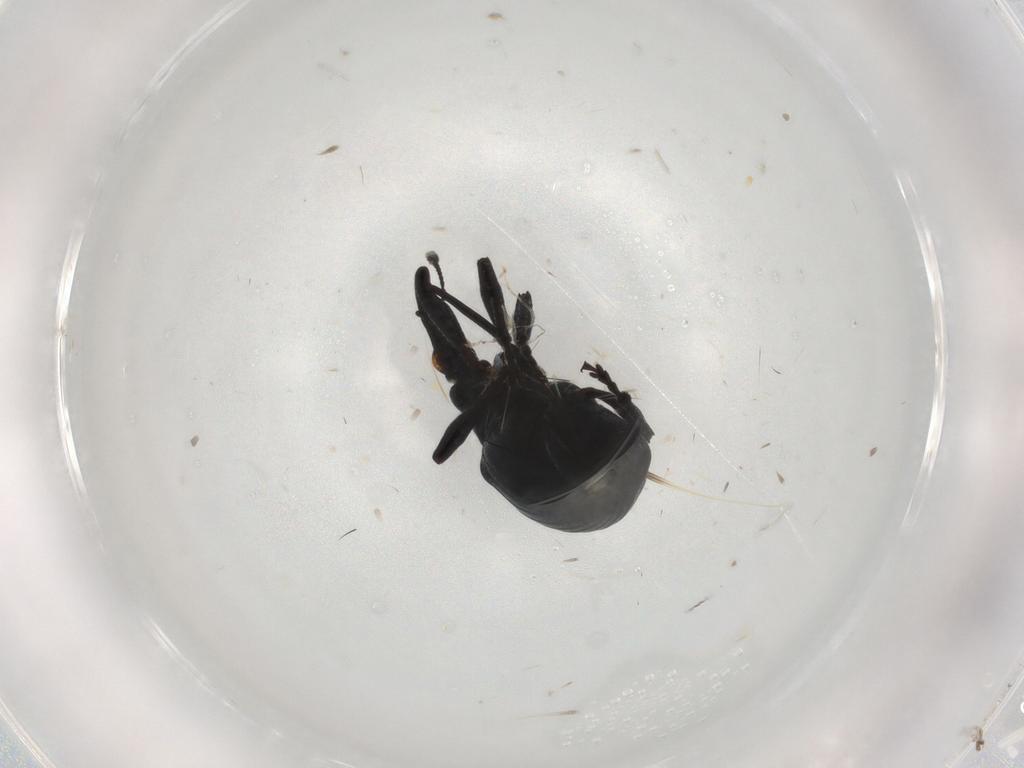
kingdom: Animalia
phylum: Arthropoda
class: Insecta
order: Coleoptera
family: Apionidae
